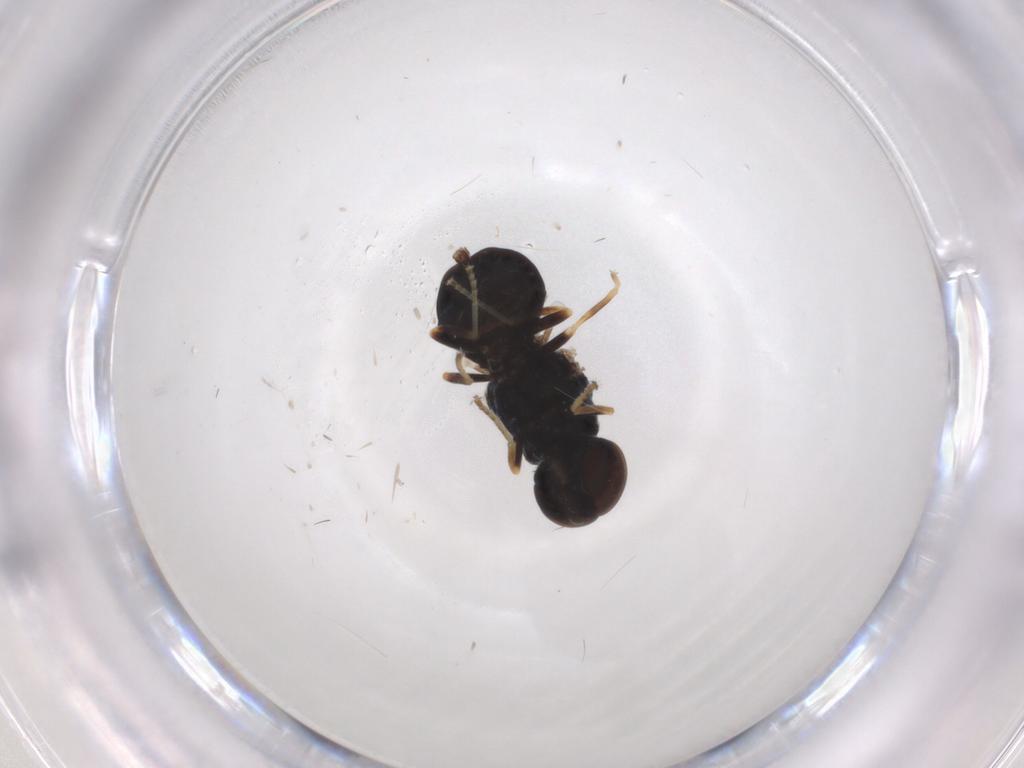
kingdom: Animalia
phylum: Arthropoda
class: Insecta
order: Diptera
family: Stratiomyidae
